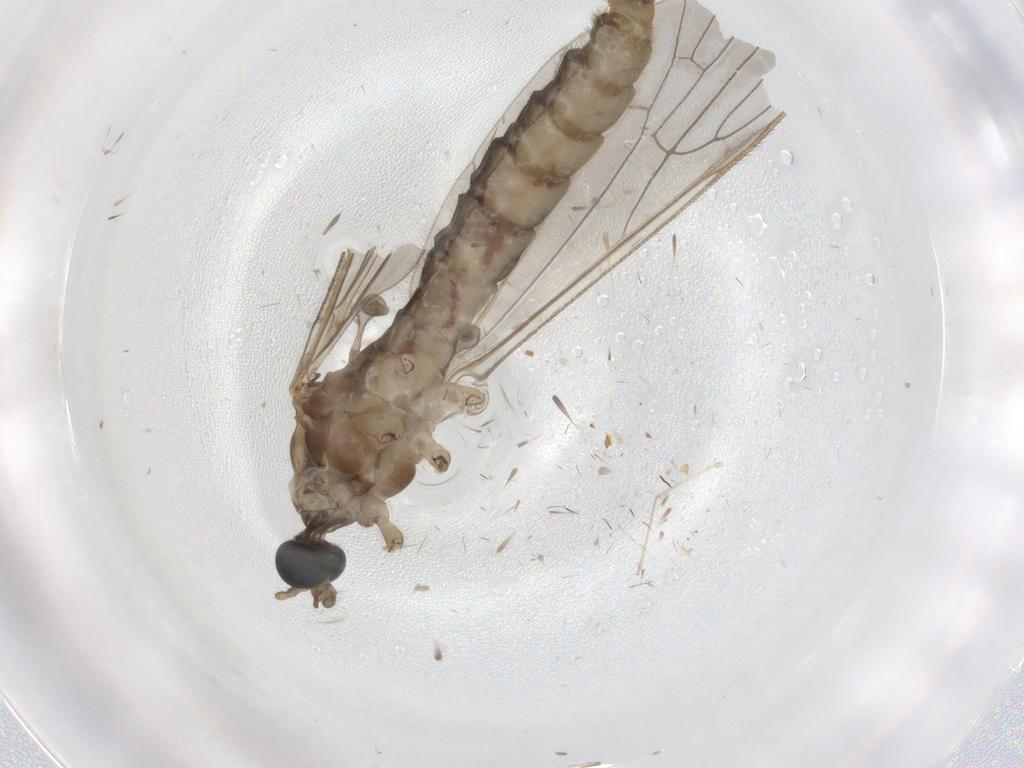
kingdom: Animalia
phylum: Arthropoda
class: Insecta
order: Diptera
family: Limoniidae
